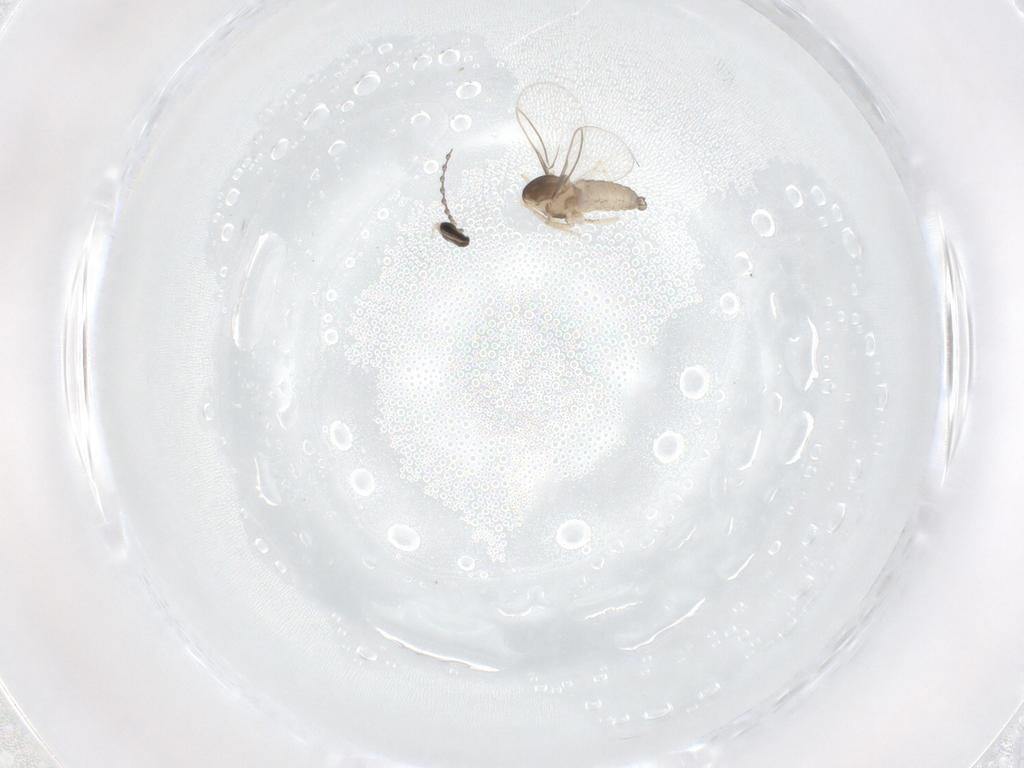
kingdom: Animalia
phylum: Arthropoda
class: Insecta
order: Diptera
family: Cecidomyiidae
